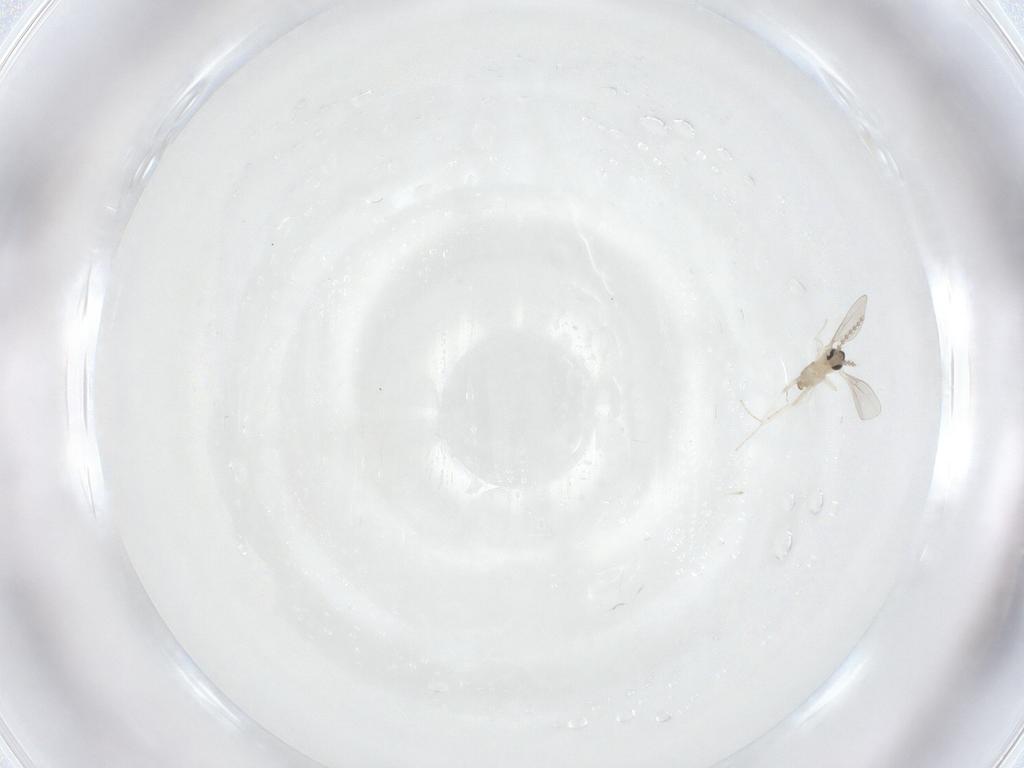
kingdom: Animalia
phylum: Arthropoda
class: Insecta
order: Diptera
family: Cecidomyiidae
